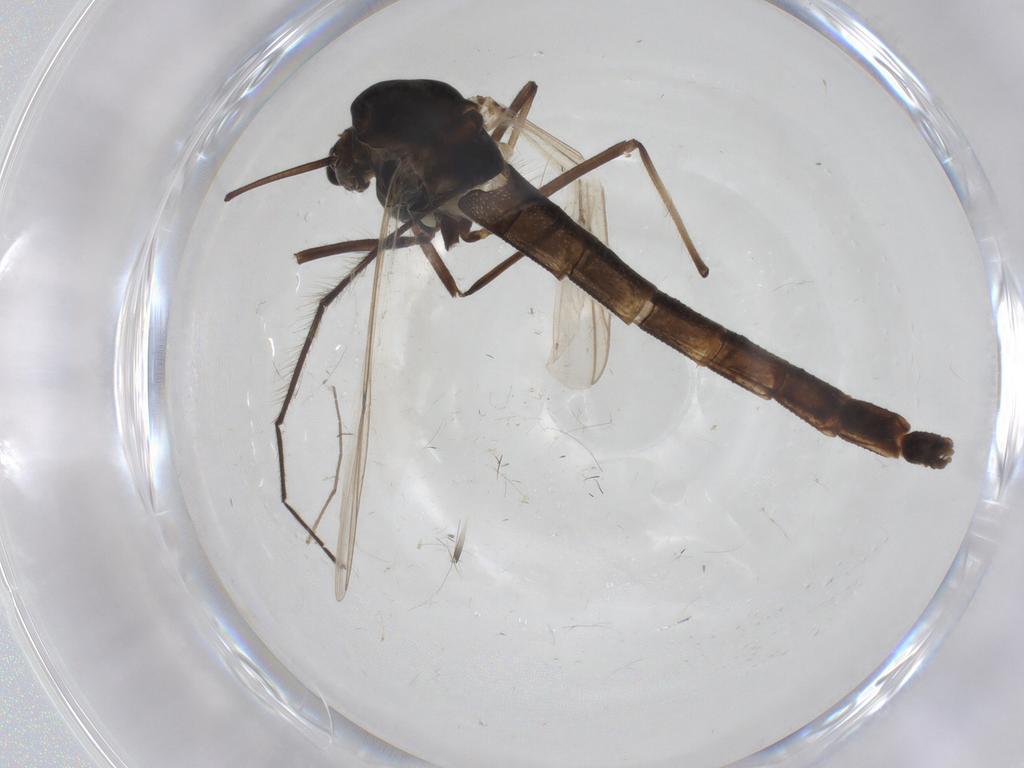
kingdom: Animalia
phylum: Arthropoda
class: Insecta
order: Diptera
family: Chironomidae
